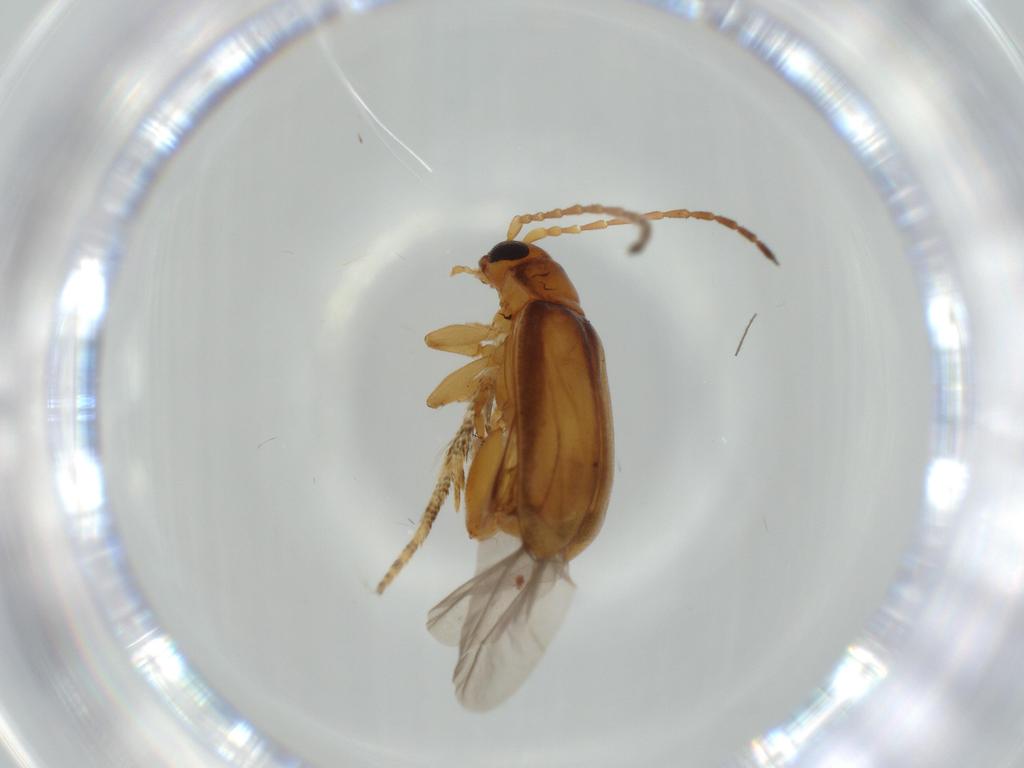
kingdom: Animalia
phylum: Arthropoda
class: Insecta
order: Coleoptera
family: Chrysomelidae
